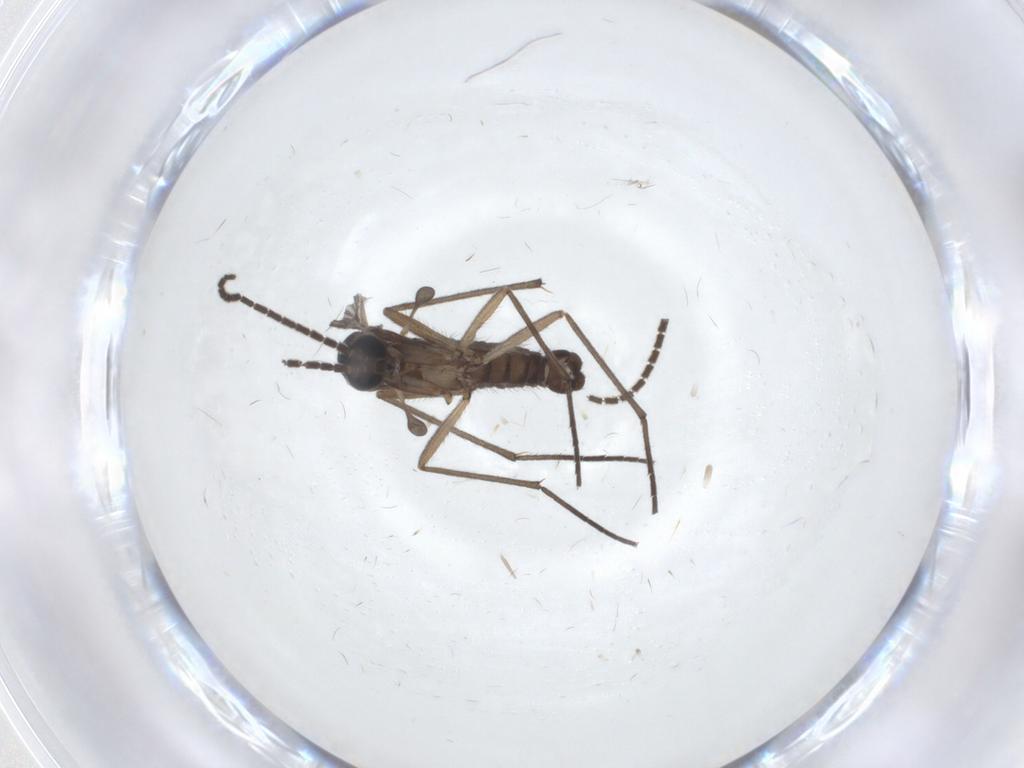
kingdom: Animalia
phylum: Arthropoda
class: Insecta
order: Diptera
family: Sciaridae
